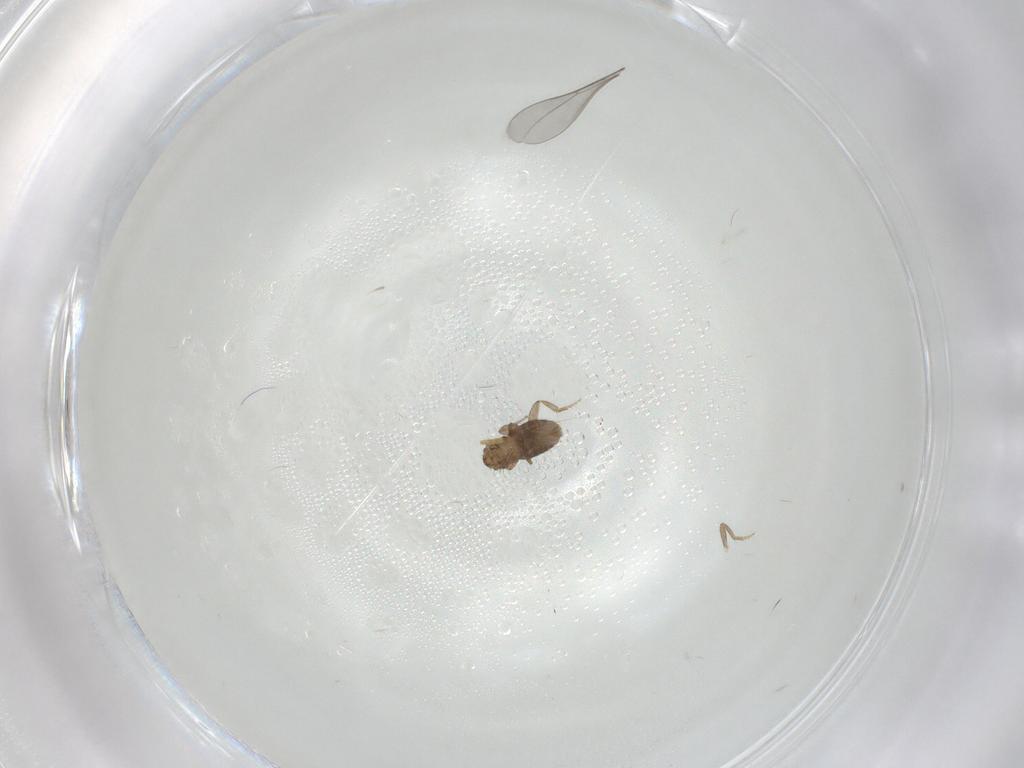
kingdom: Animalia
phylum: Arthropoda
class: Insecta
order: Diptera
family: Cecidomyiidae
